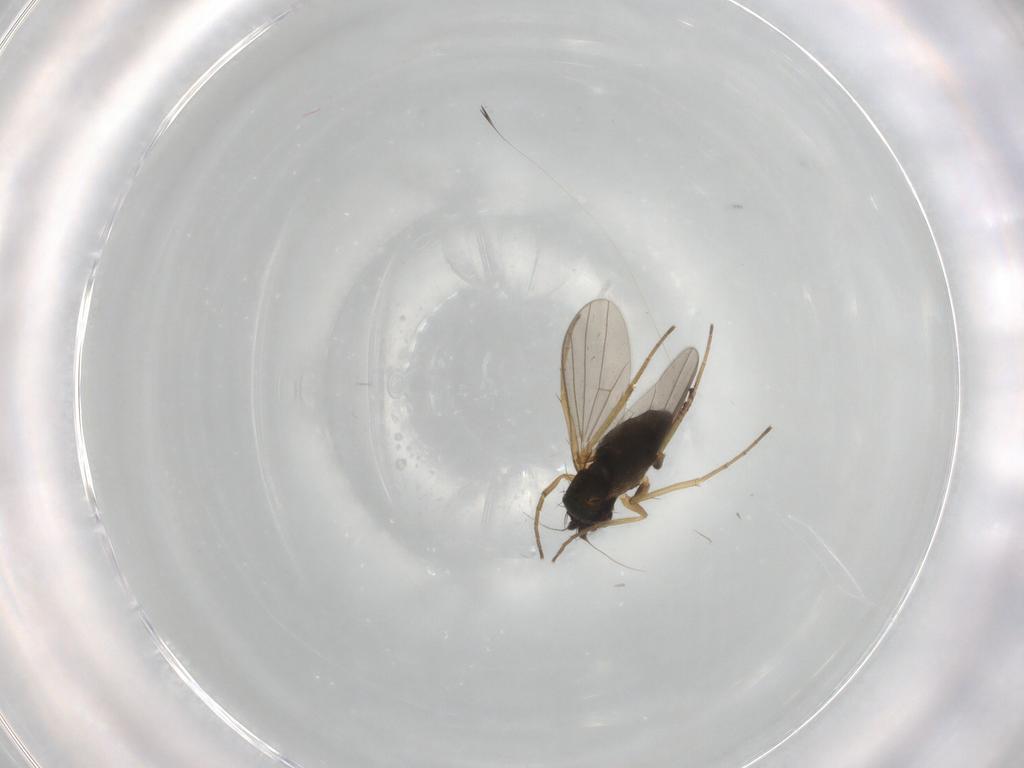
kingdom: Animalia
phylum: Arthropoda
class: Insecta
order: Diptera
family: Dolichopodidae
